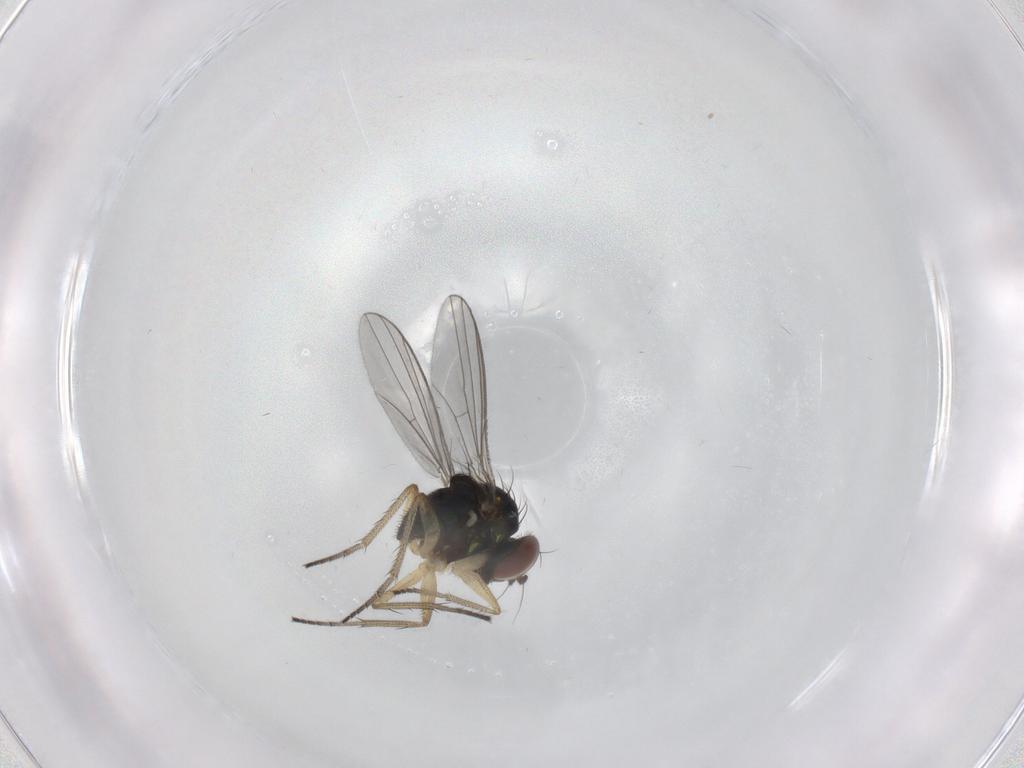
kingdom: Animalia
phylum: Arthropoda
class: Insecta
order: Diptera
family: Dolichopodidae
